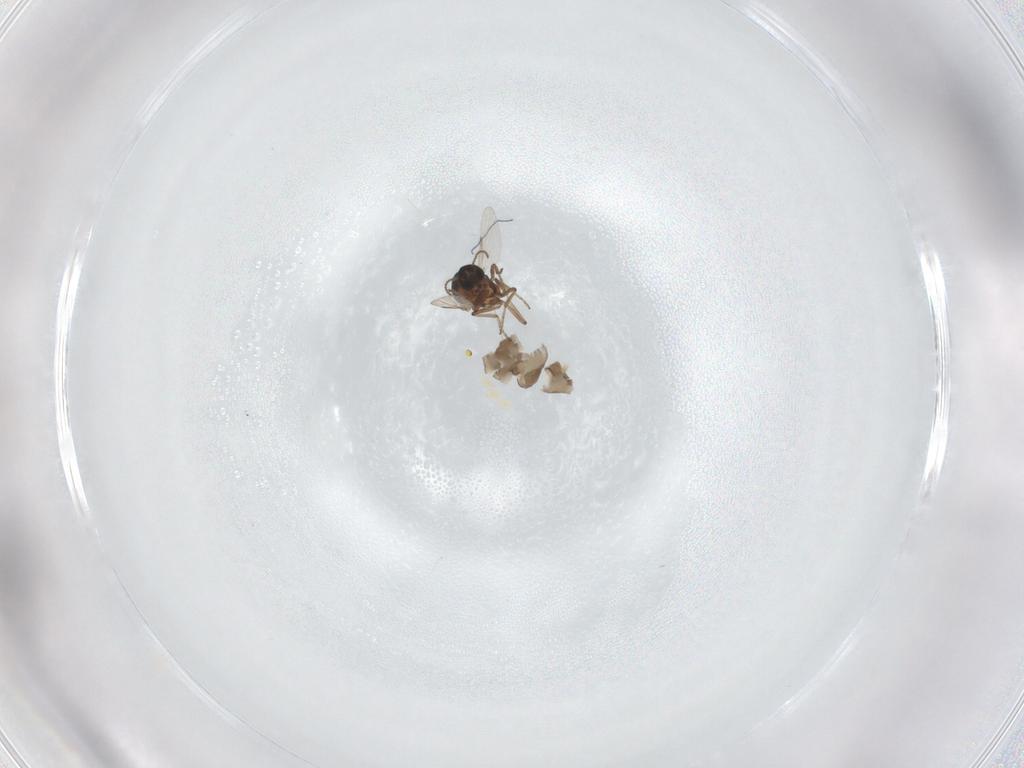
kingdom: Animalia
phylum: Arthropoda
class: Insecta
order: Diptera
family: Ceratopogonidae
